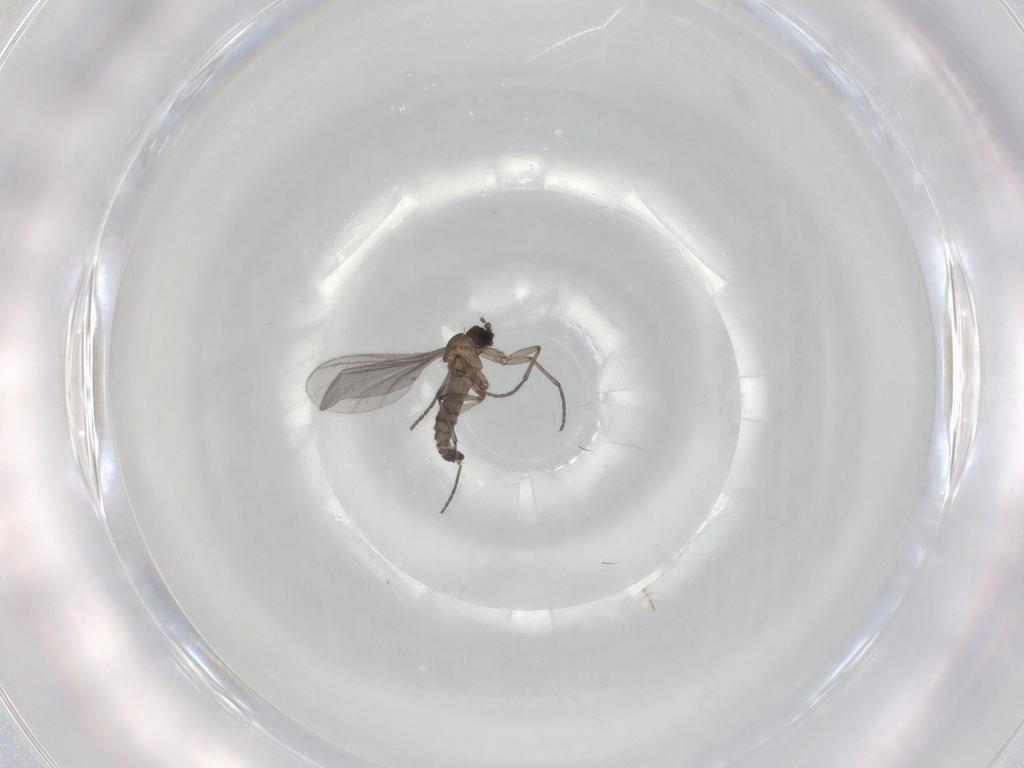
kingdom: Animalia
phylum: Arthropoda
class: Insecta
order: Diptera
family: Sciaridae
